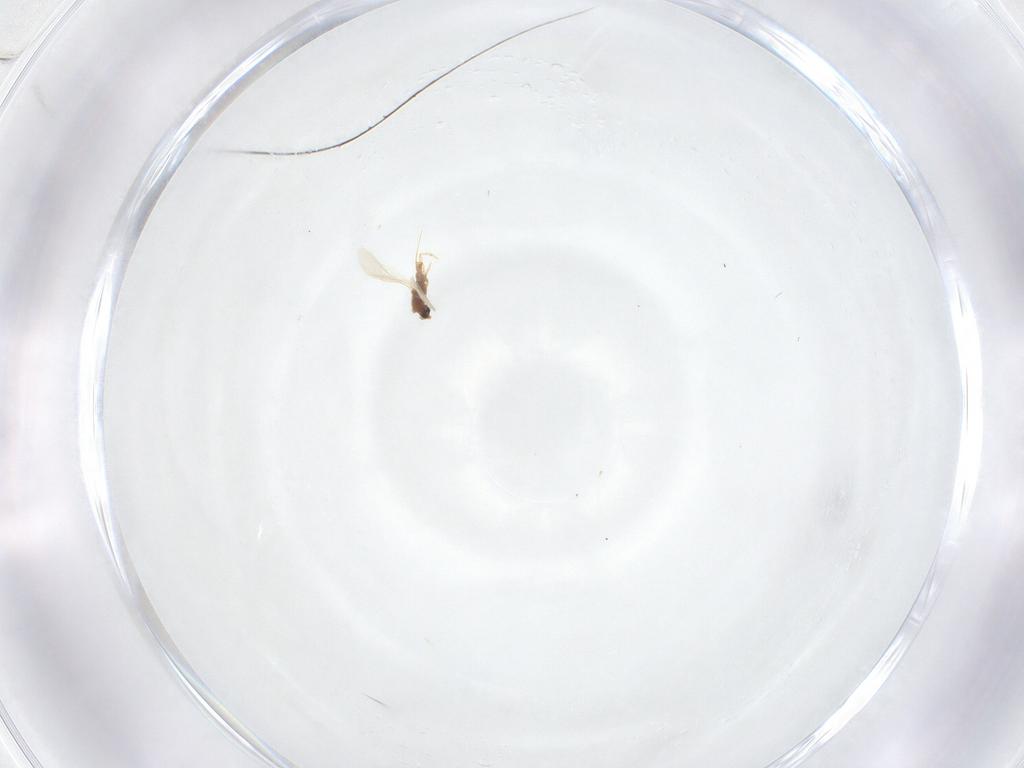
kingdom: Animalia
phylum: Arthropoda
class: Insecta
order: Hemiptera
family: Diaspididae
